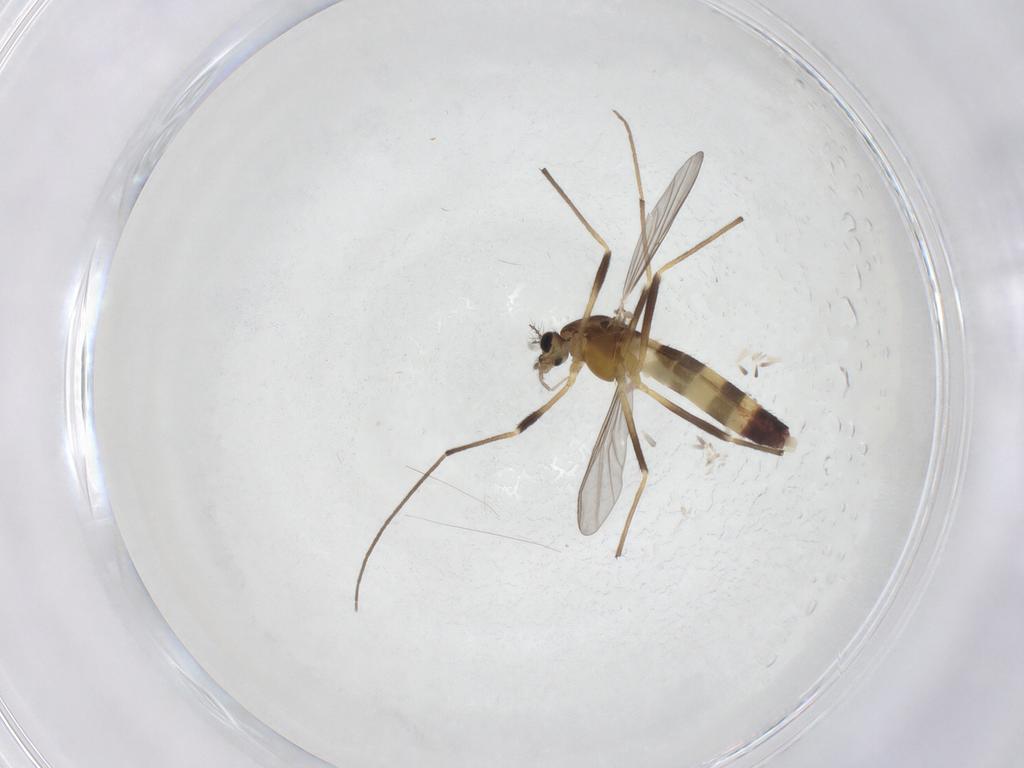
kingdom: Animalia
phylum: Arthropoda
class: Insecta
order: Diptera
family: Chironomidae
